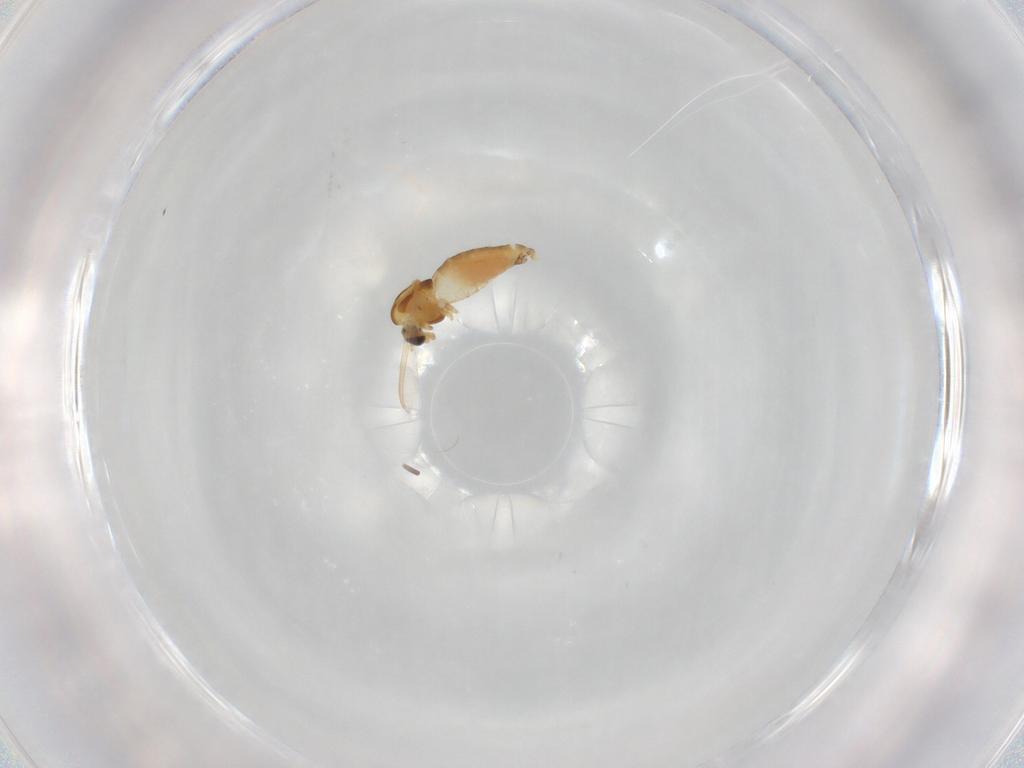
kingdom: Animalia
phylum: Arthropoda
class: Insecta
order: Diptera
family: Chironomidae
